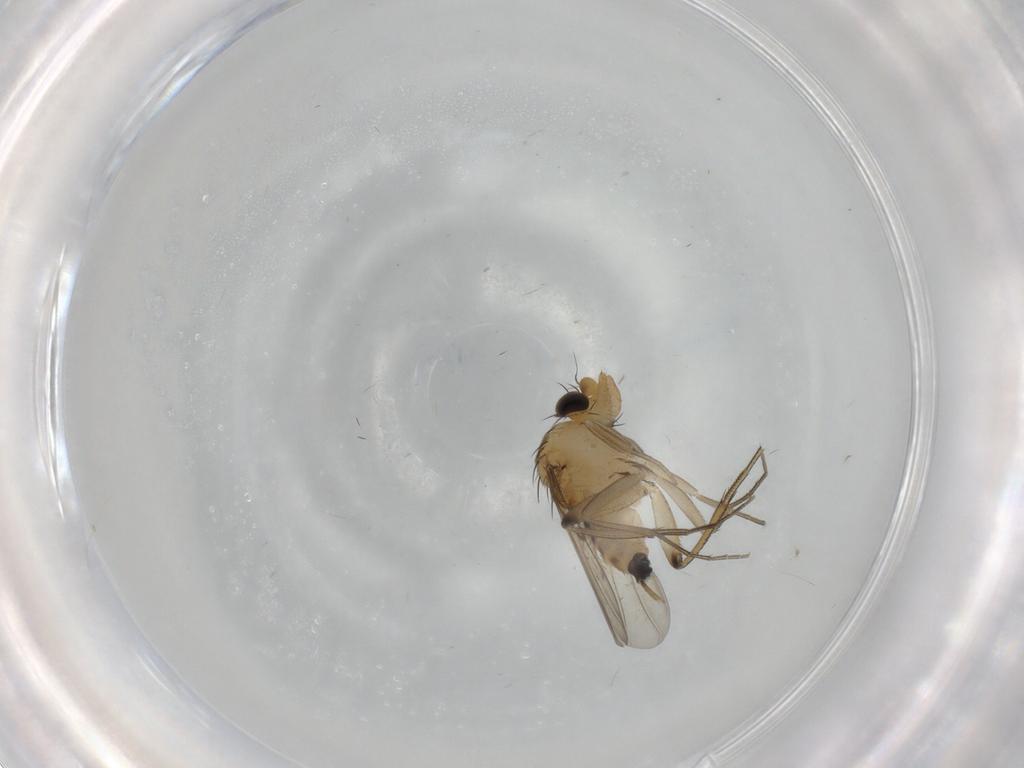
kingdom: Animalia
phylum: Arthropoda
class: Insecta
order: Diptera
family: Phoridae
